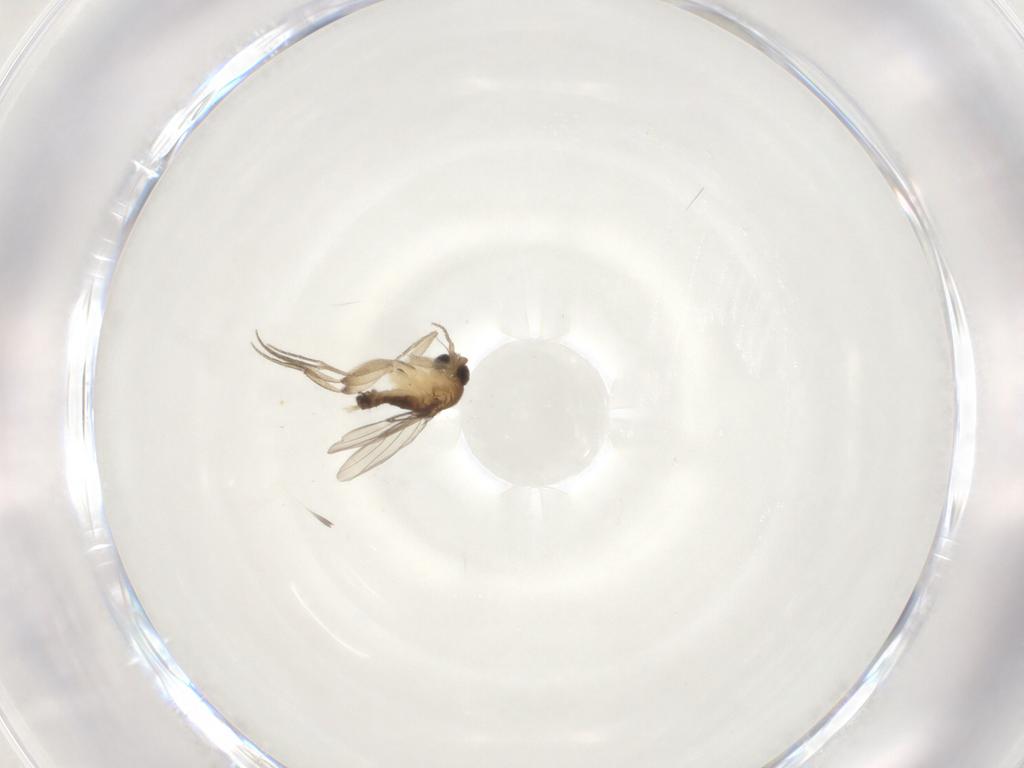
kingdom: Animalia
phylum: Arthropoda
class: Insecta
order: Diptera
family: Phoridae
